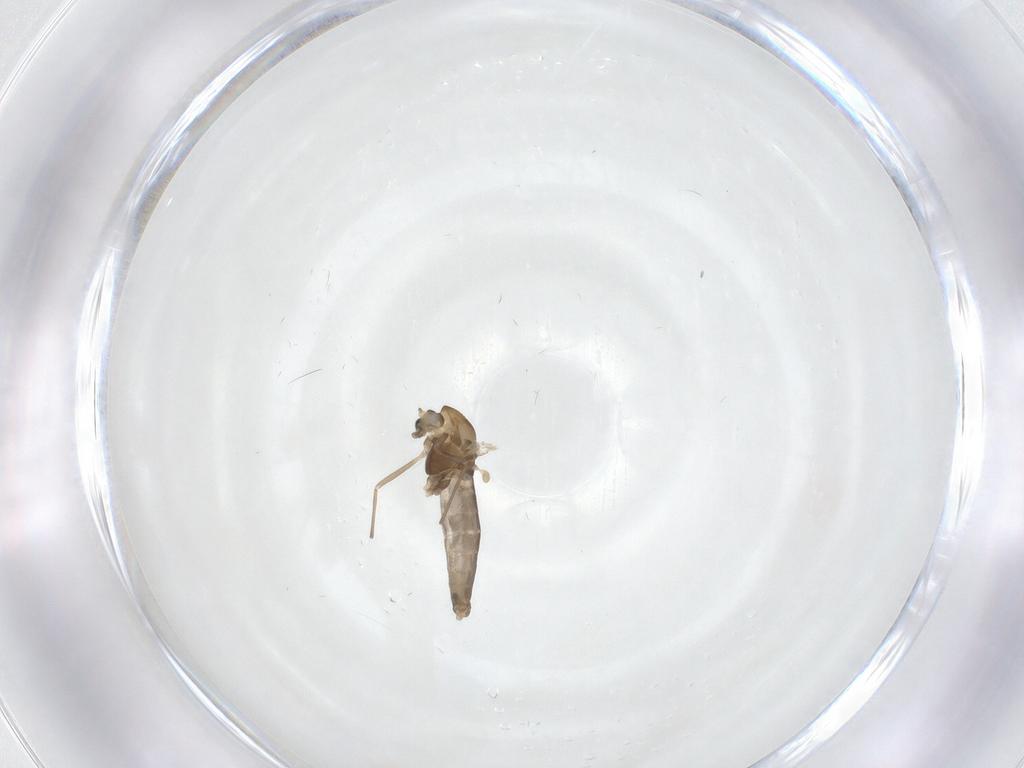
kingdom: Animalia
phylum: Arthropoda
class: Insecta
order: Diptera
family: Chironomidae
